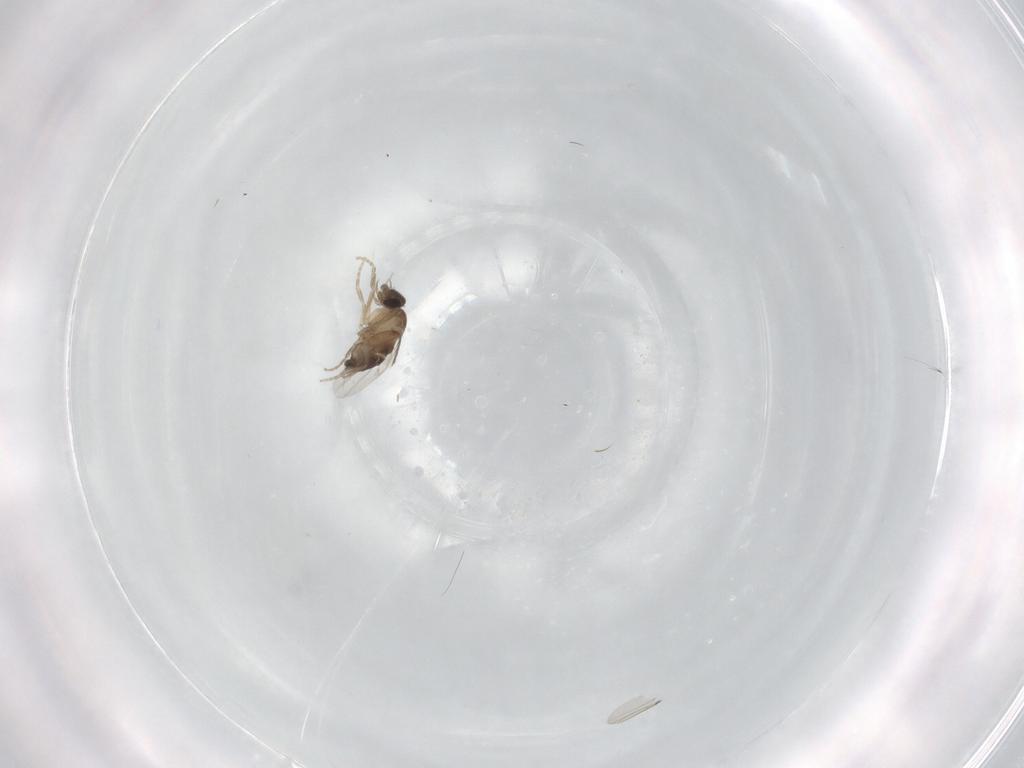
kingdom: Animalia
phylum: Arthropoda
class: Insecta
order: Diptera
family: Phoridae
